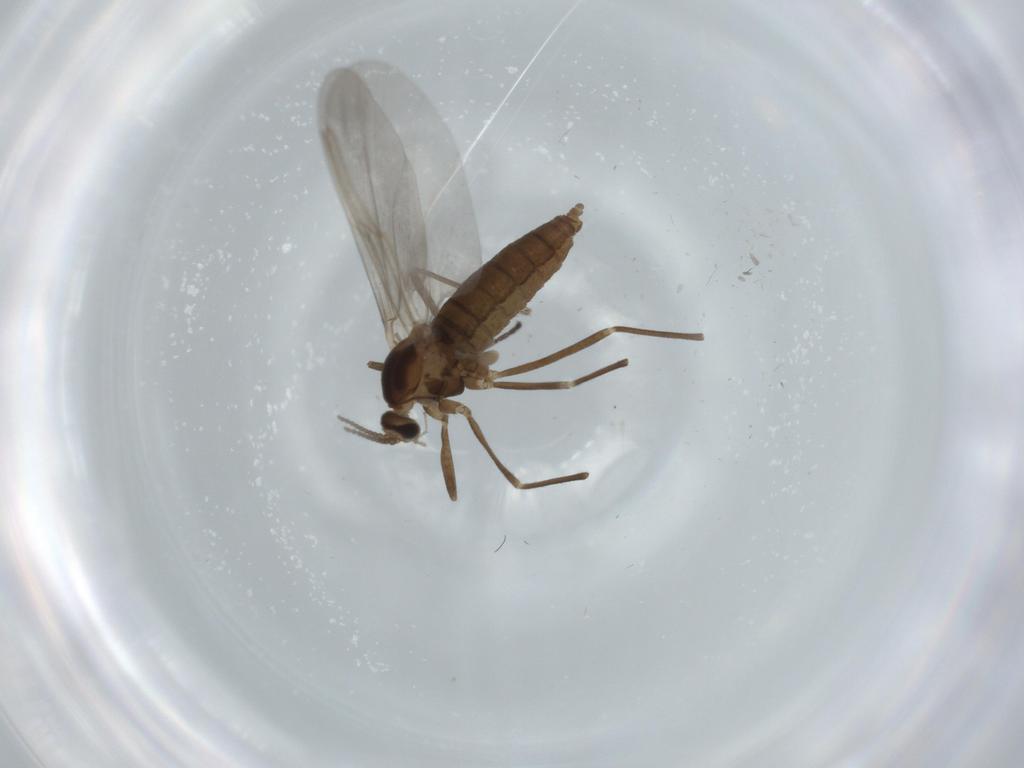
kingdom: Animalia
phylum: Arthropoda
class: Insecta
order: Diptera
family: Cecidomyiidae
